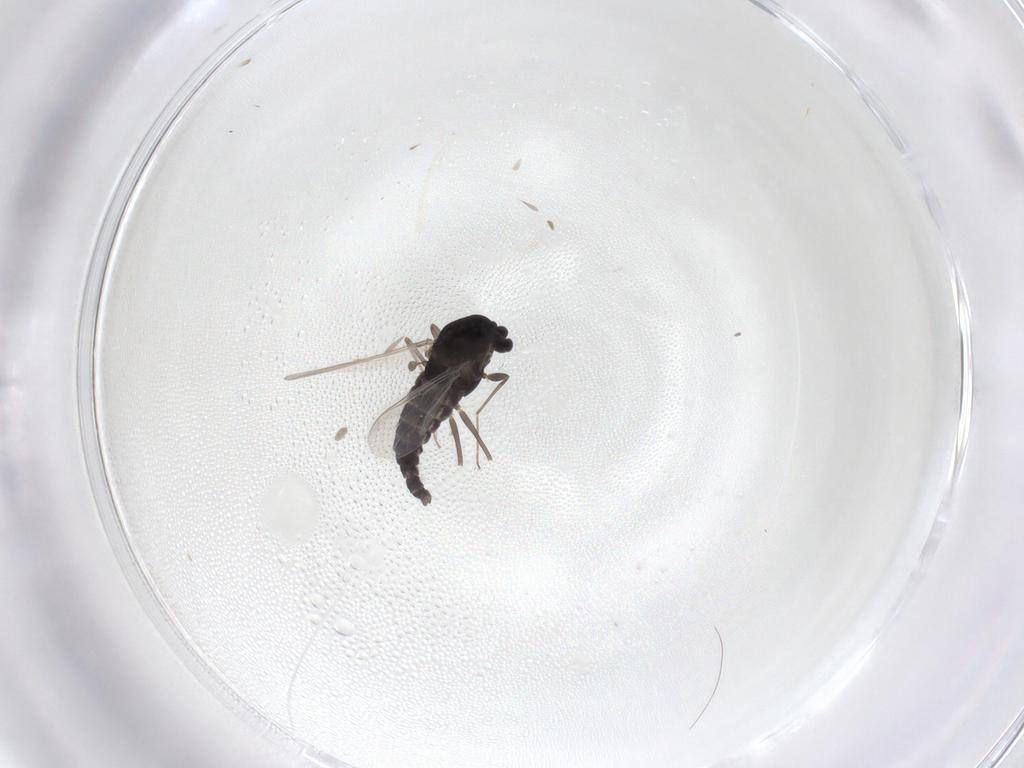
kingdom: Animalia
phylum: Arthropoda
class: Insecta
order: Diptera
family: Chironomidae
